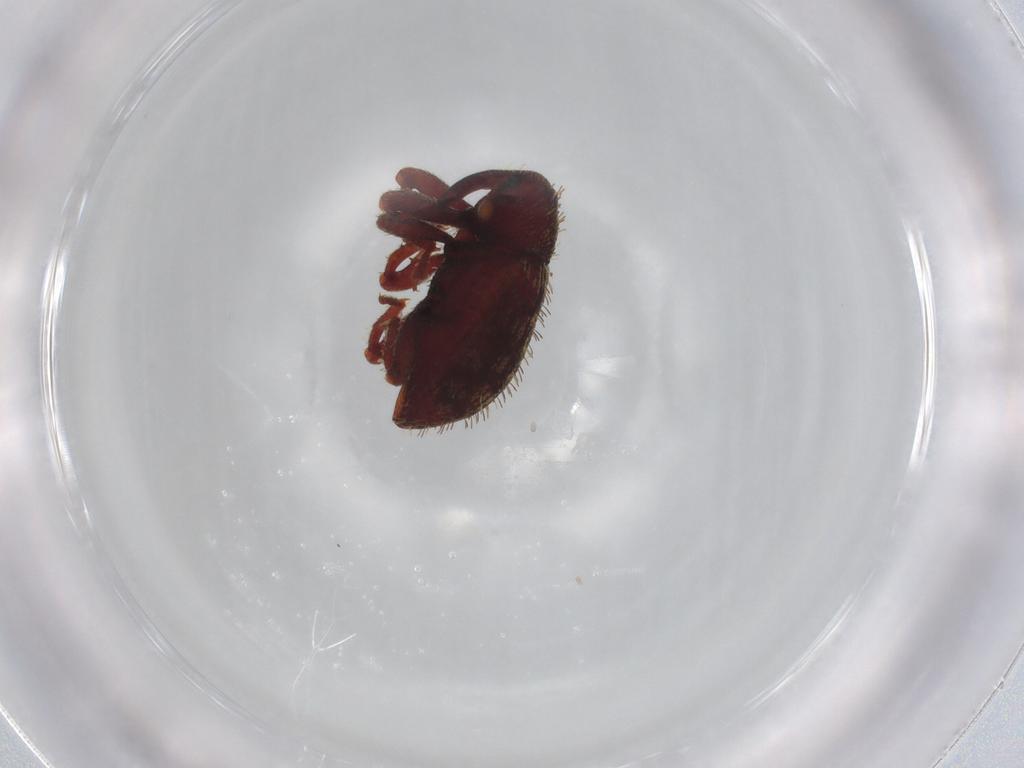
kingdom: Animalia
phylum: Arthropoda
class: Insecta
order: Coleoptera
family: Curculionidae
